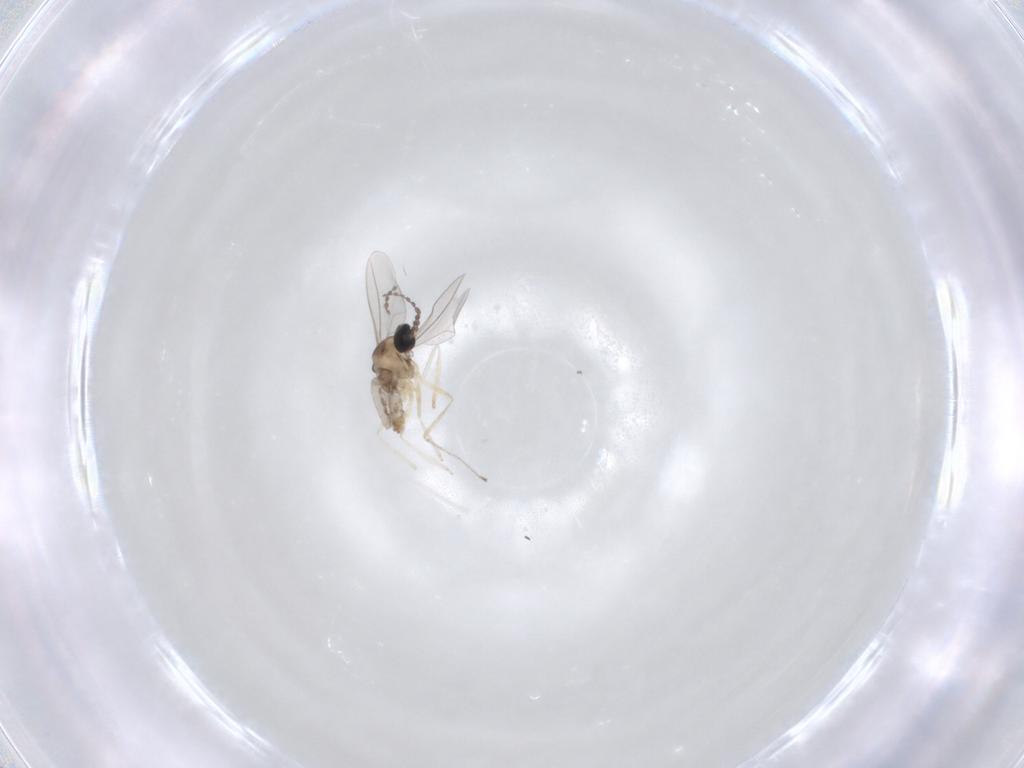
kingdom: Animalia
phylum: Arthropoda
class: Insecta
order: Diptera
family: Cecidomyiidae
